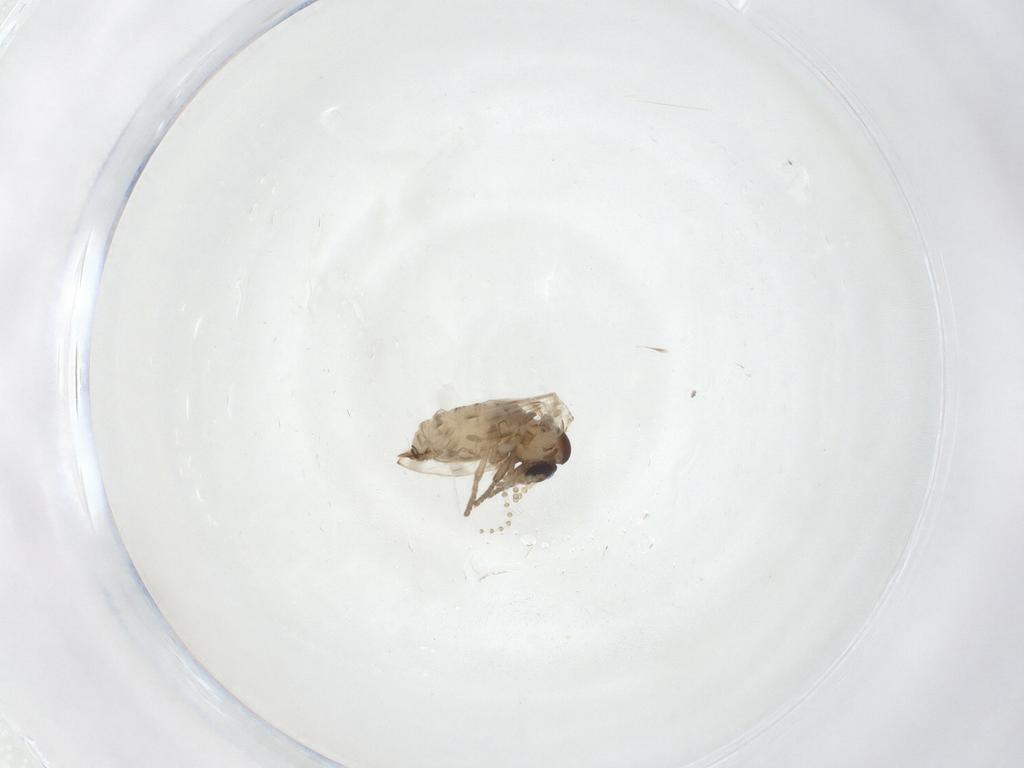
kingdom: Animalia
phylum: Arthropoda
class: Insecta
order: Diptera
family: Psychodidae
